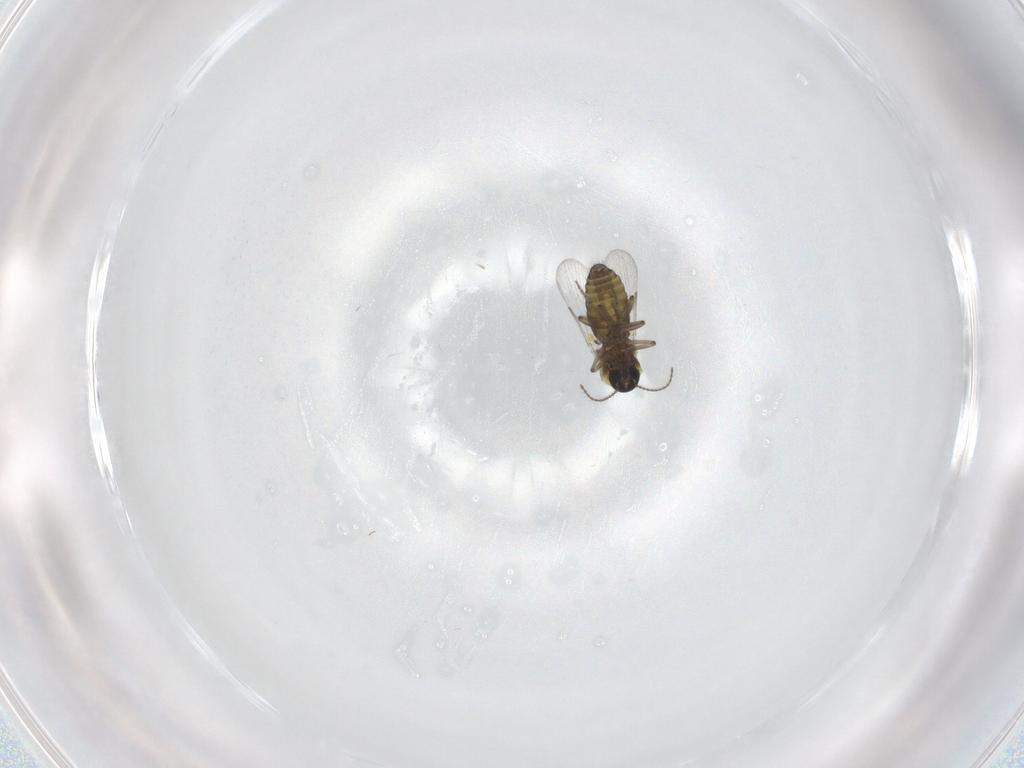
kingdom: Animalia
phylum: Arthropoda
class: Insecta
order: Diptera
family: Ceratopogonidae
